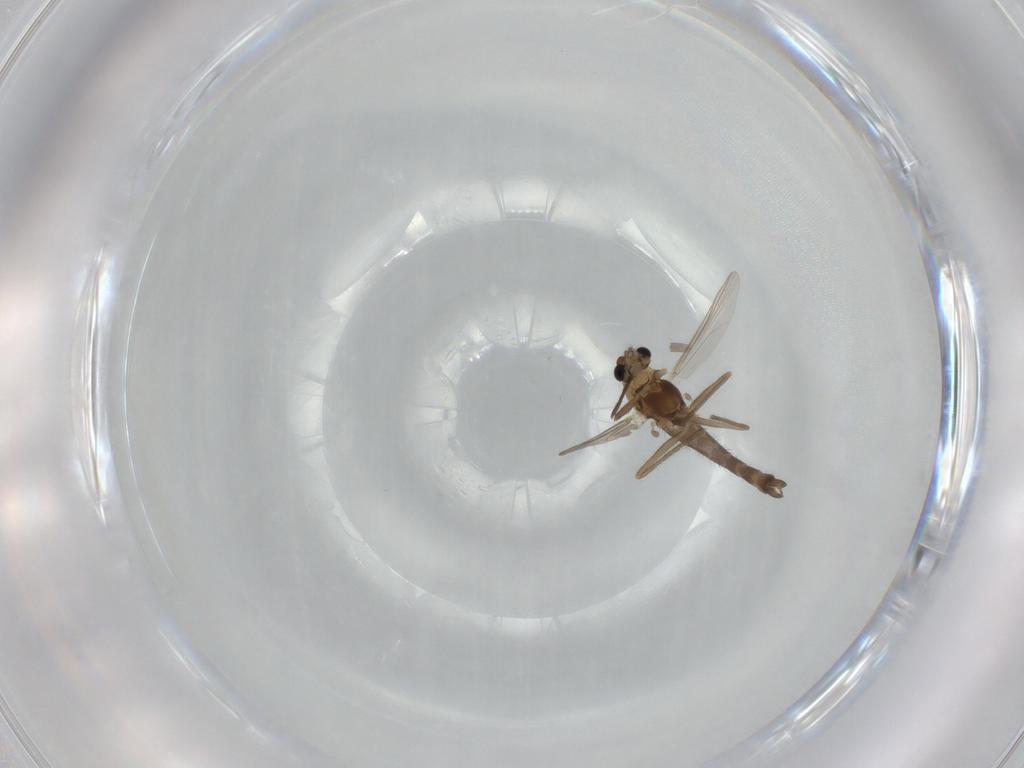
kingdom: Animalia
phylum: Arthropoda
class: Insecta
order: Diptera
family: Chironomidae
